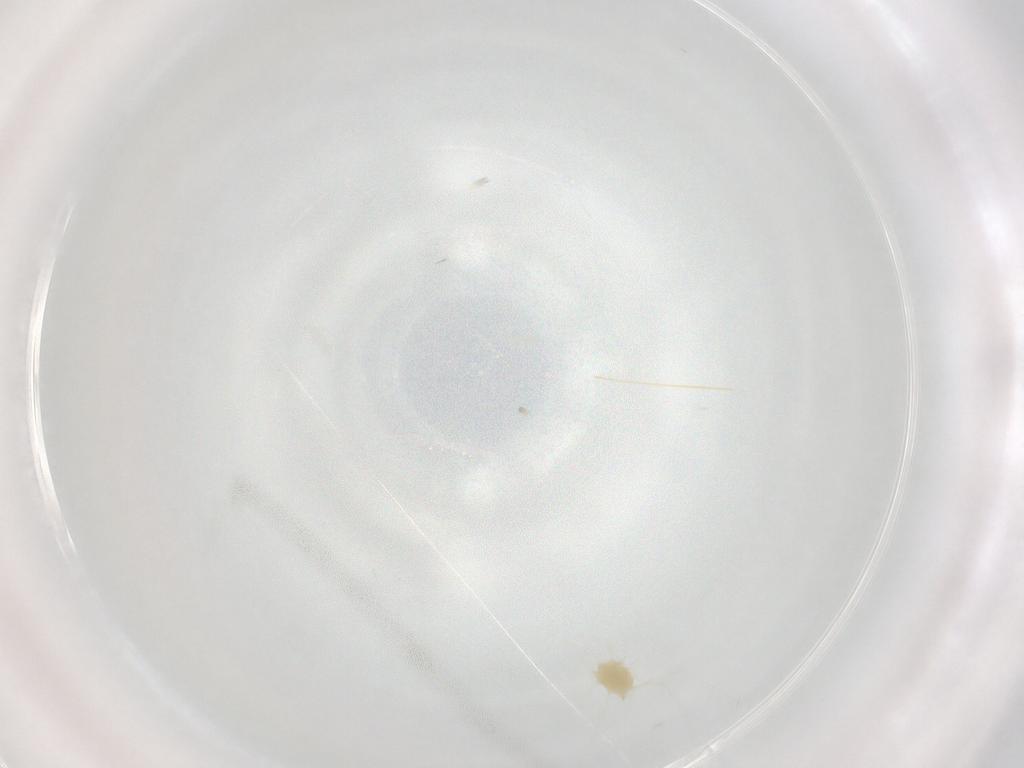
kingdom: Animalia
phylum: Arthropoda
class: Arachnida
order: Trombidiformes
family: Tetranychidae
